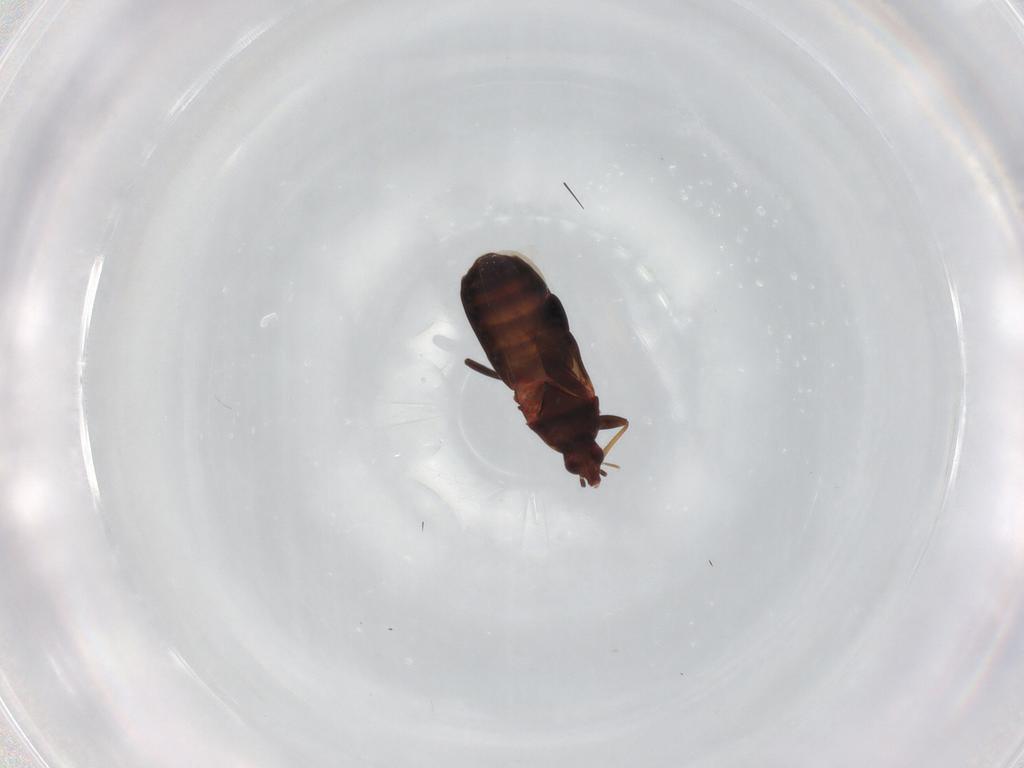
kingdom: Animalia
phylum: Arthropoda
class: Insecta
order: Hemiptera
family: Lasiochilidae
